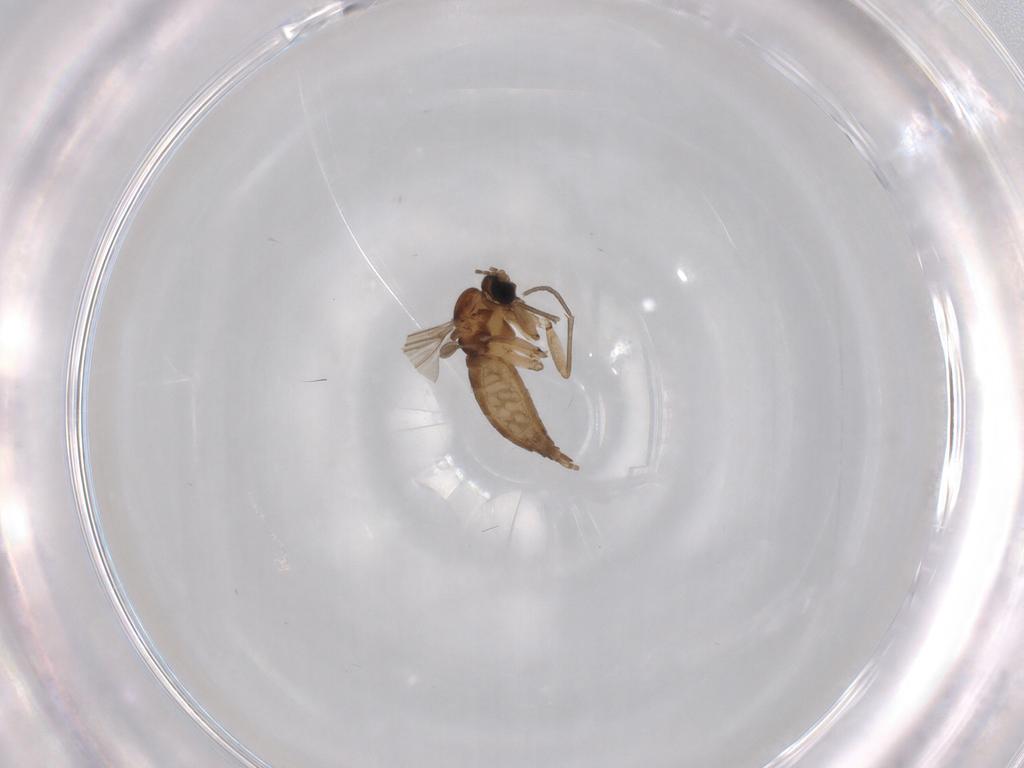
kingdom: Animalia
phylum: Arthropoda
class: Insecta
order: Diptera
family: Sciaridae
